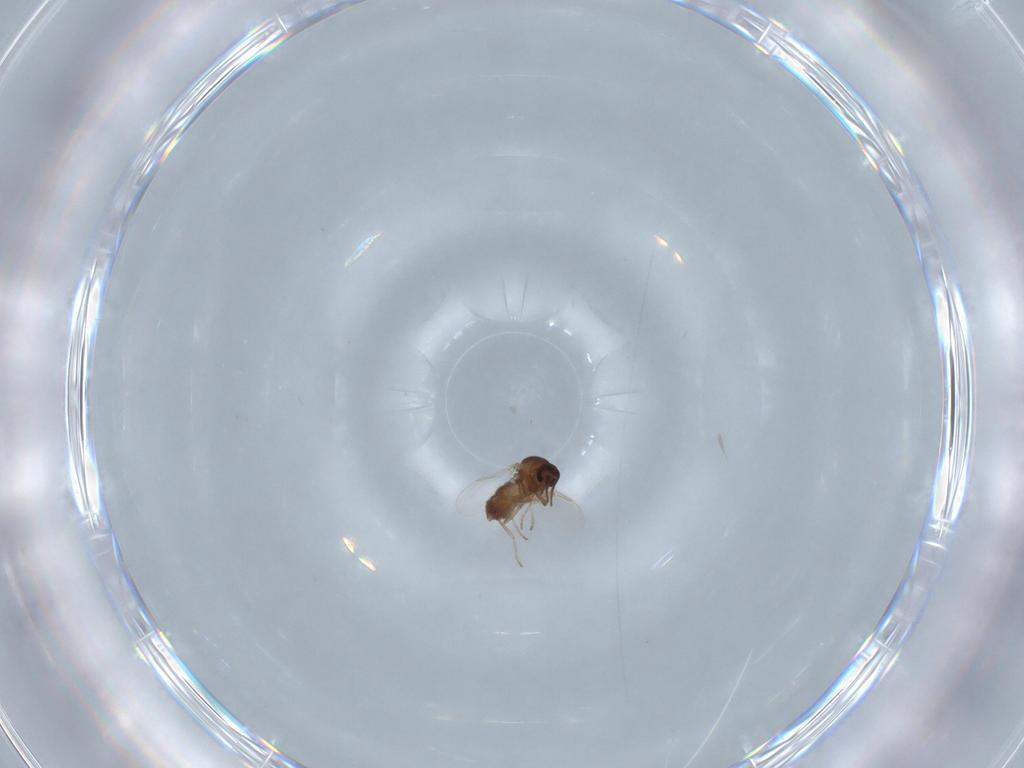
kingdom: Animalia
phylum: Arthropoda
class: Insecta
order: Diptera
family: Ceratopogonidae
